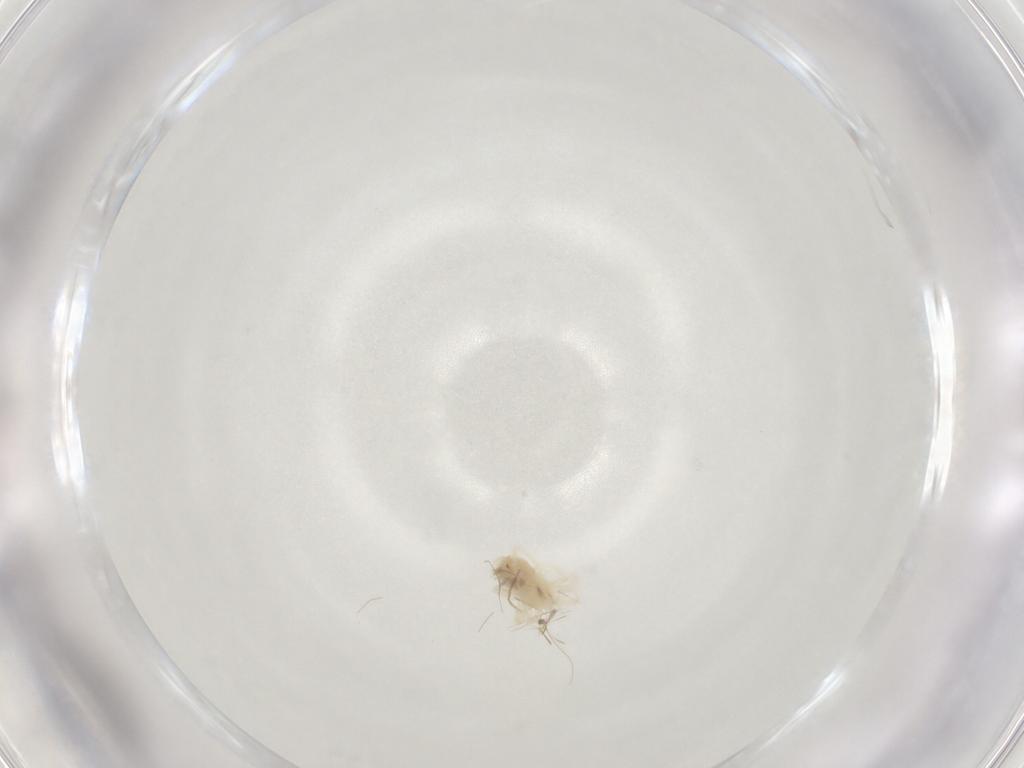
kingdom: Animalia
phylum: Arthropoda
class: Arachnida
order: Trombidiformes
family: Anystidae
